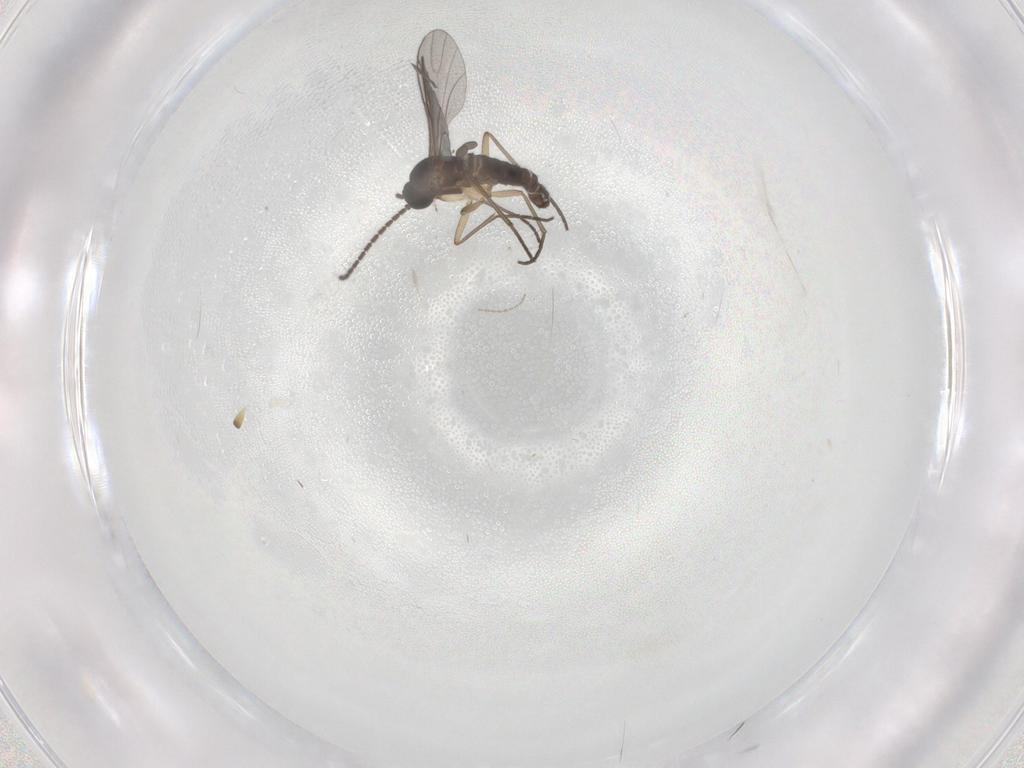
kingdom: Animalia
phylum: Arthropoda
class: Insecta
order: Diptera
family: Sciaridae
